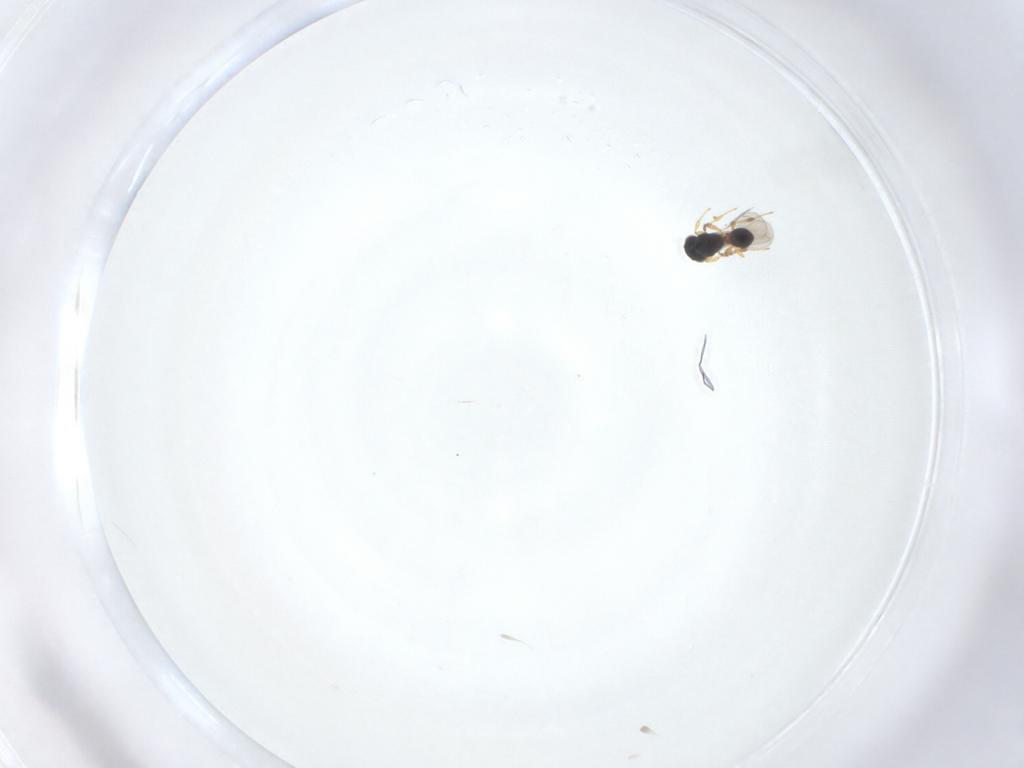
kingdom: Animalia
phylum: Arthropoda
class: Insecta
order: Hymenoptera
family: Platygastridae
